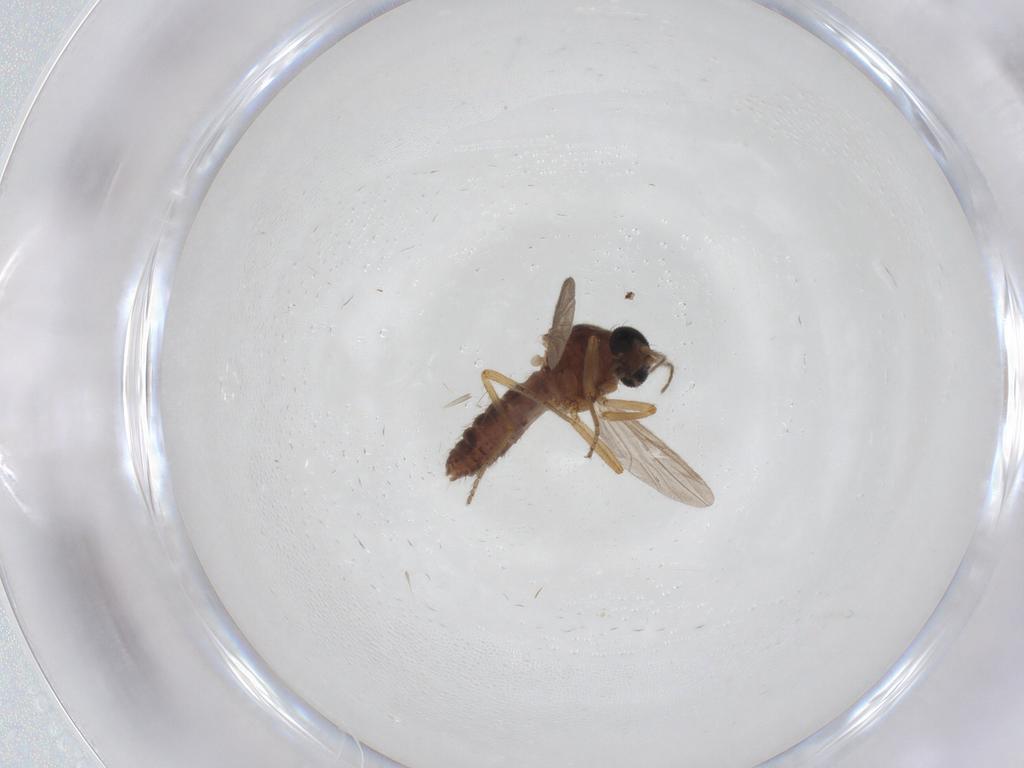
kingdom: Animalia
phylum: Arthropoda
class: Insecta
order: Diptera
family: Ceratopogonidae
